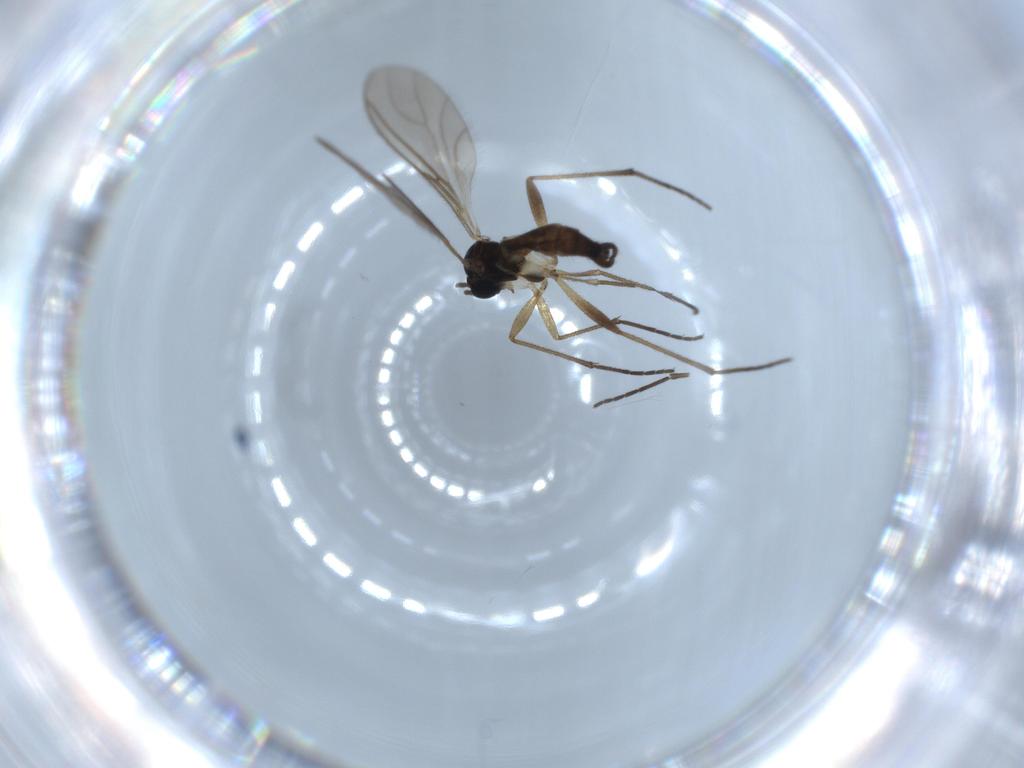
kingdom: Animalia
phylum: Arthropoda
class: Insecta
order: Diptera
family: Sciaridae
